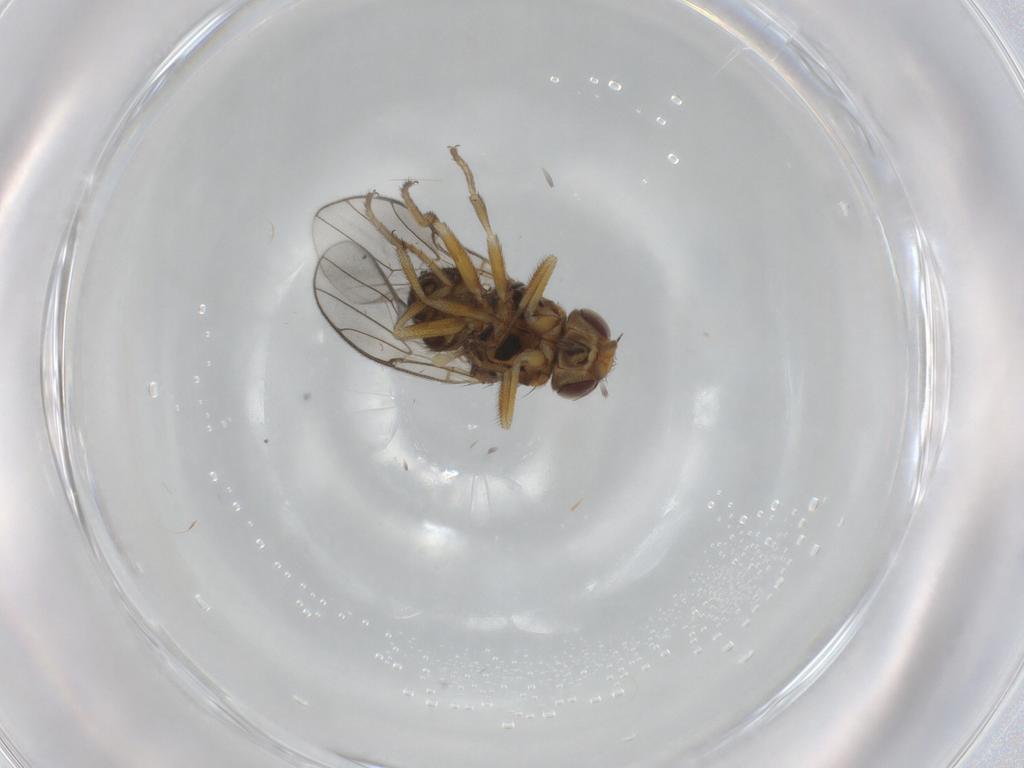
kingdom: Animalia
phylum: Arthropoda
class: Insecta
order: Diptera
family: Chloropidae
